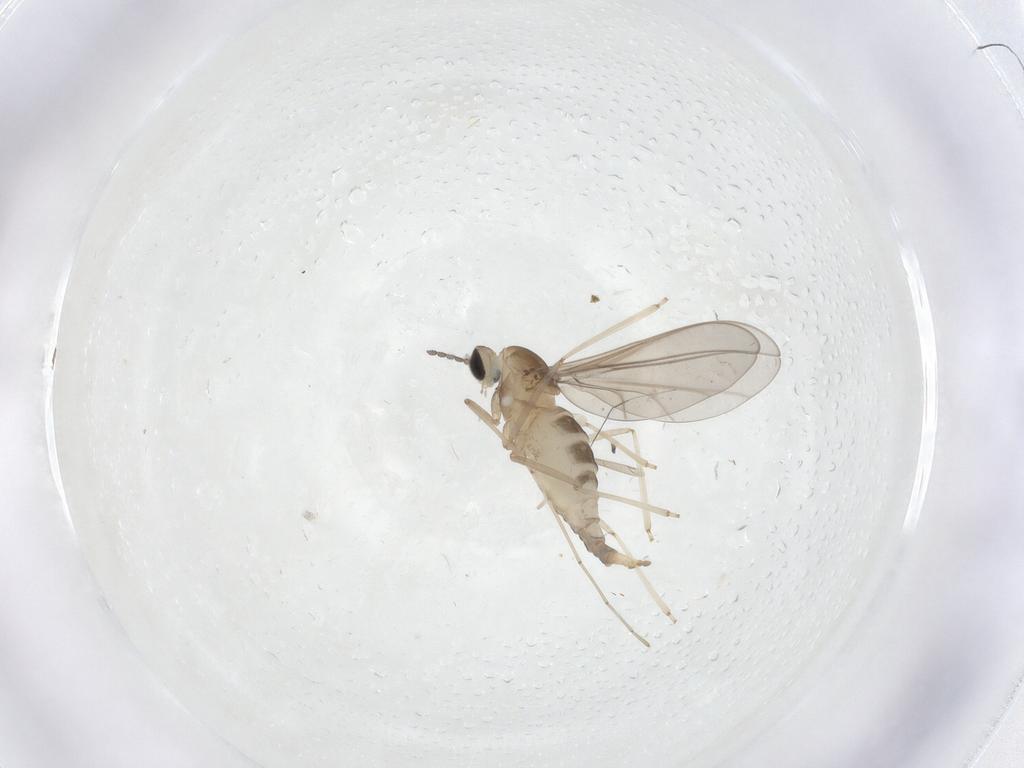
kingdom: Animalia
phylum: Arthropoda
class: Insecta
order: Diptera
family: Cecidomyiidae
